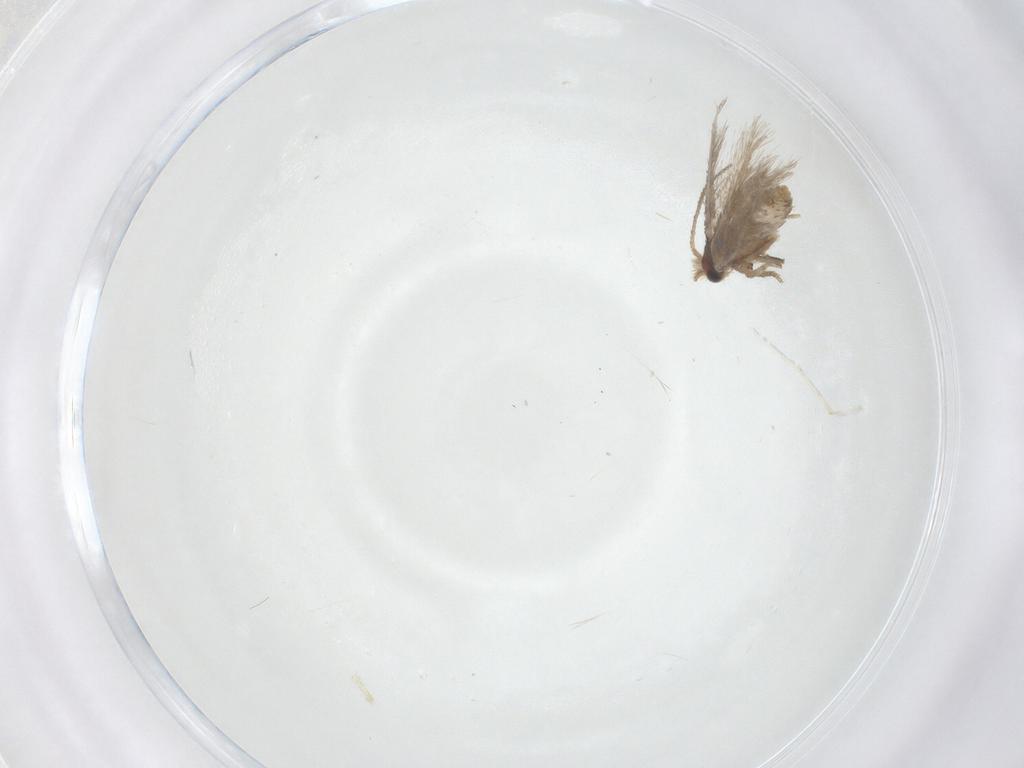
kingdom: Animalia
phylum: Arthropoda
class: Insecta
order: Lepidoptera
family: Nepticulidae
